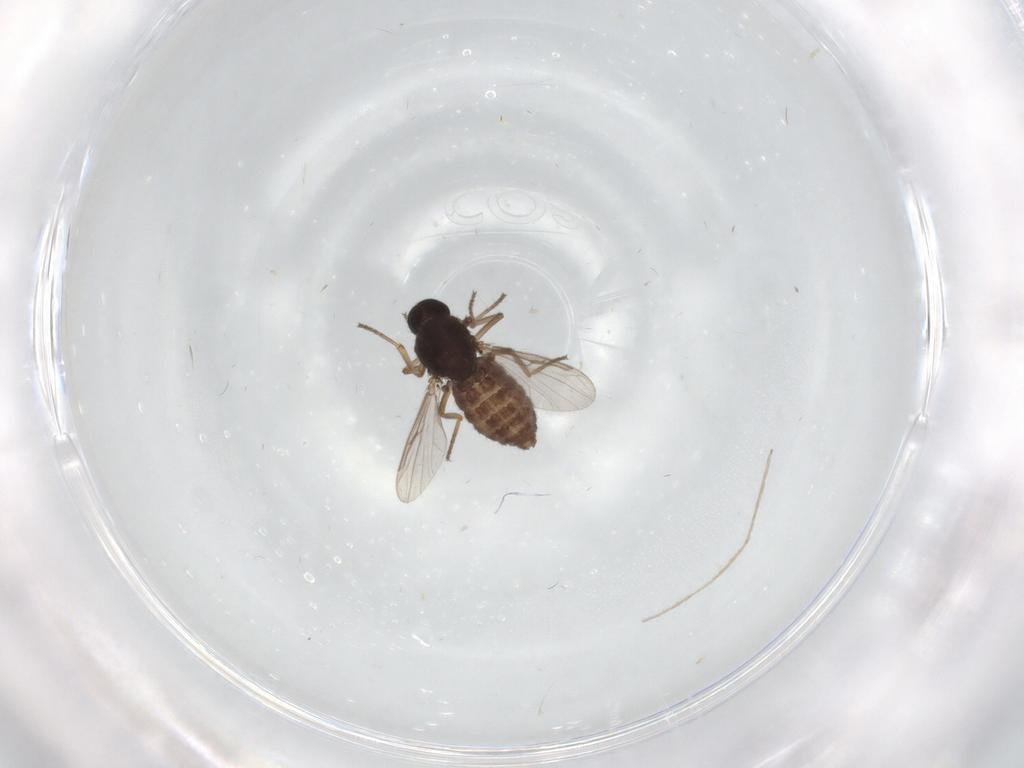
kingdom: Animalia
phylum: Arthropoda
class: Insecta
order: Diptera
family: Ceratopogonidae
